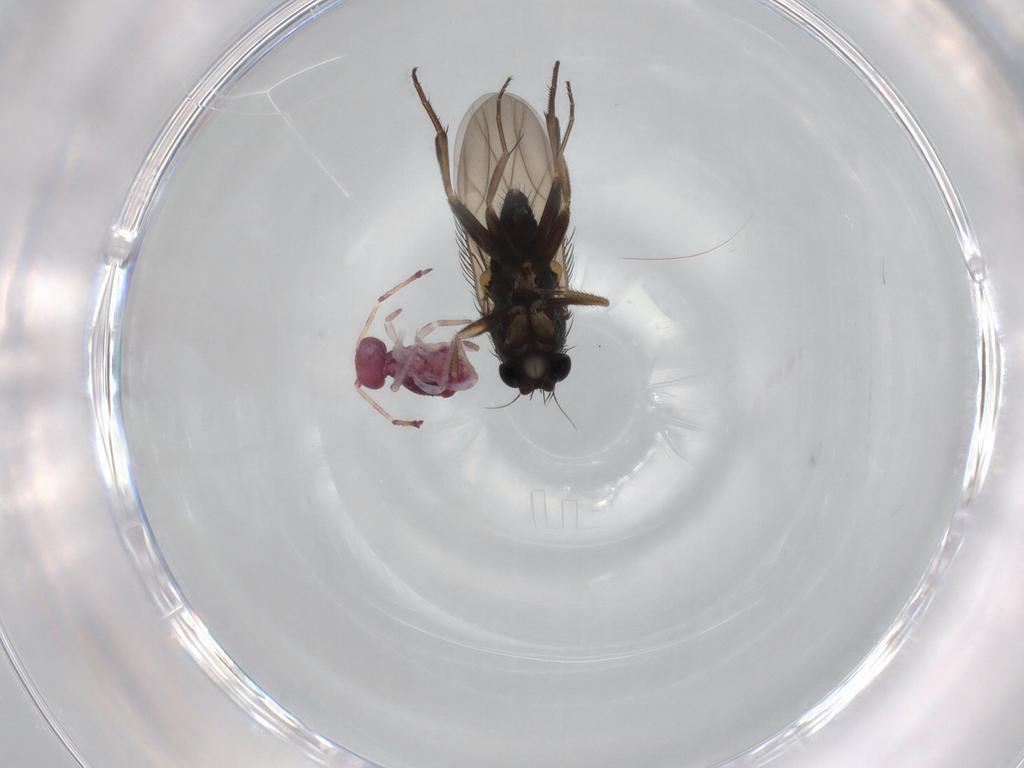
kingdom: Animalia
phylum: Arthropoda
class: Insecta
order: Diptera
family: Phoridae
